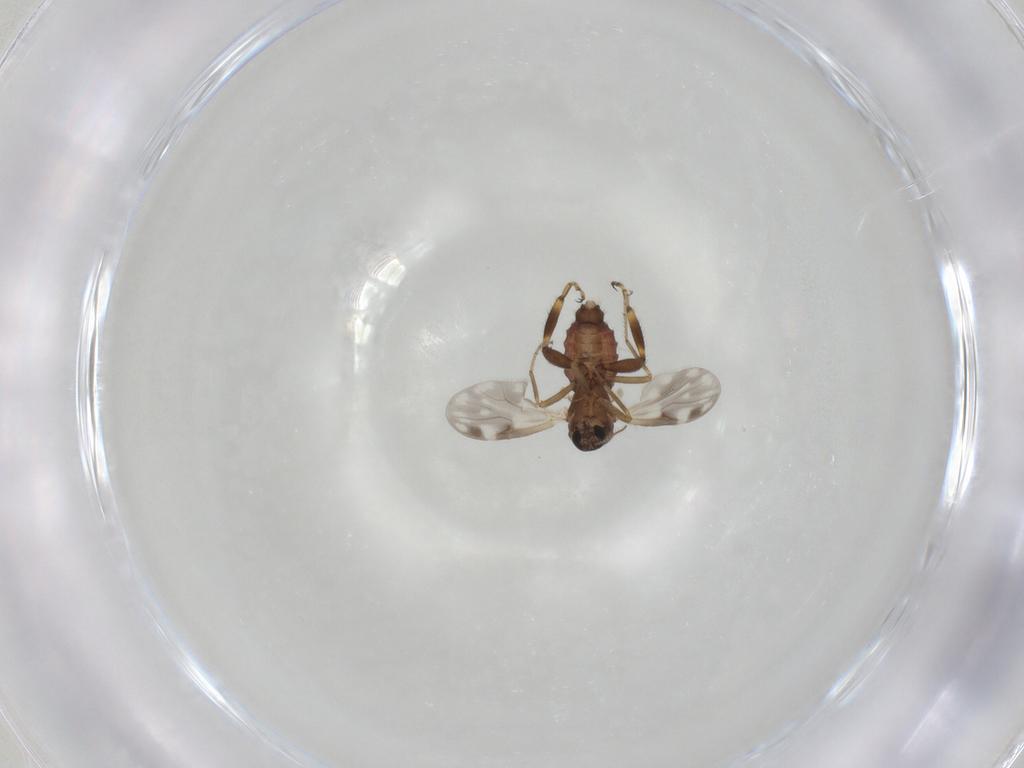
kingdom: Animalia
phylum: Arthropoda
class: Insecta
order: Diptera
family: Ceratopogonidae
